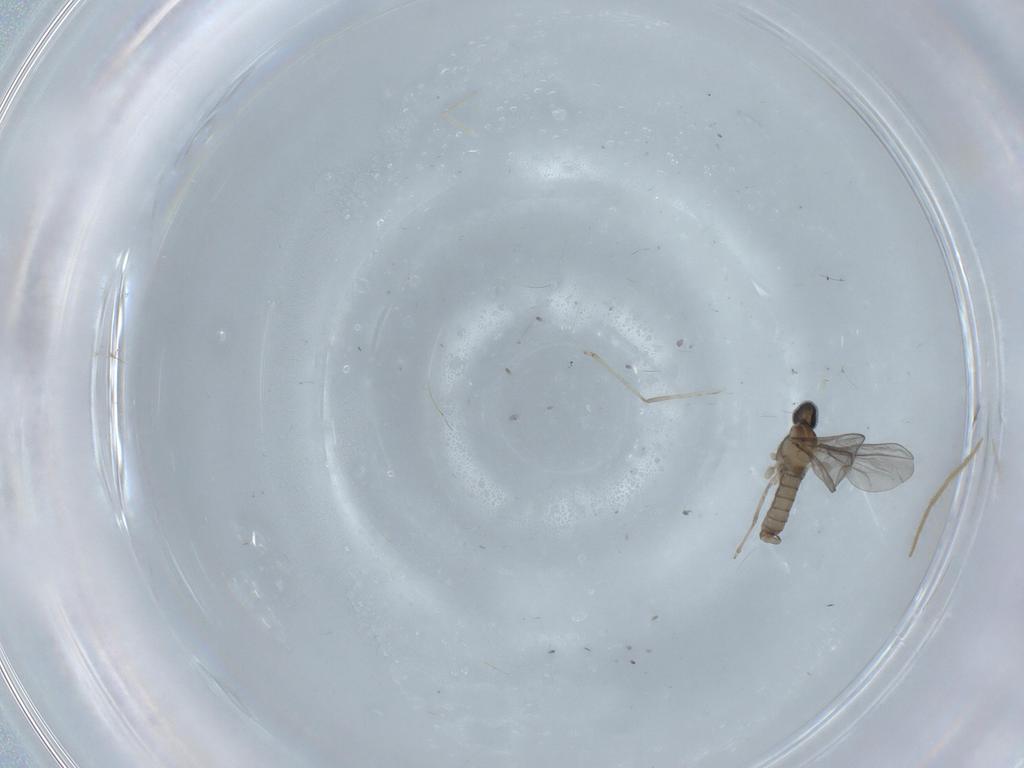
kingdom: Animalia
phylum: Arthropoda
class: Insecta
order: Diptera
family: Cecidomyiidae
